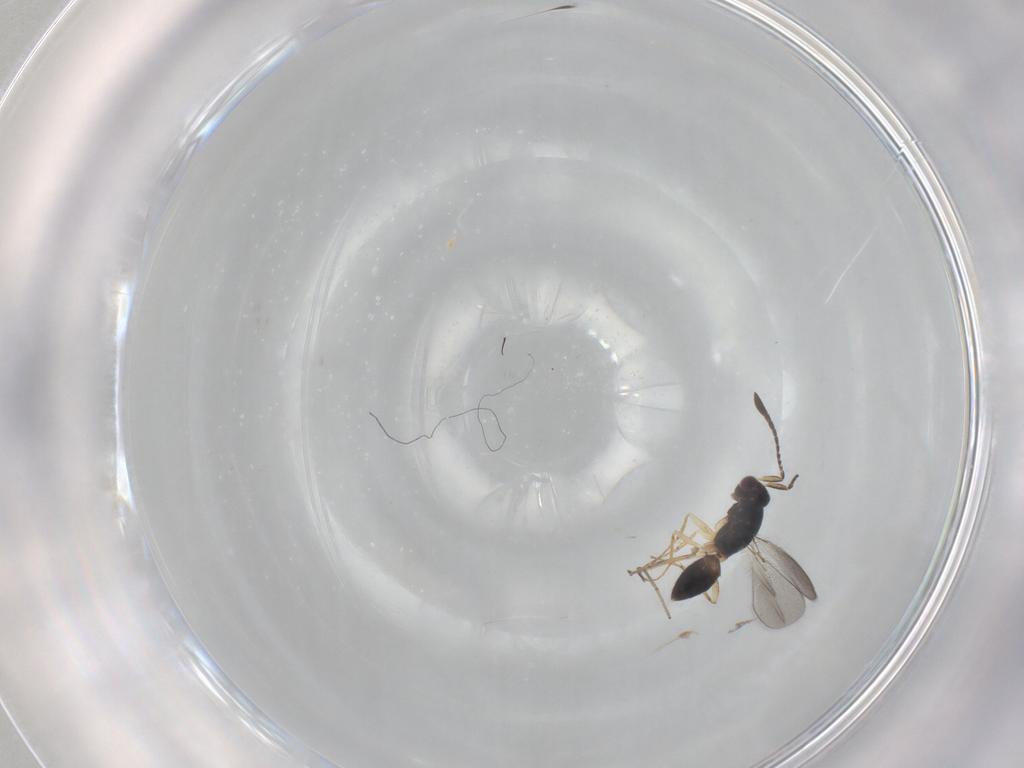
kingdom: Animalia
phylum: Arthropoda
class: Insecta
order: Hymenoptera
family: Mymaridae
